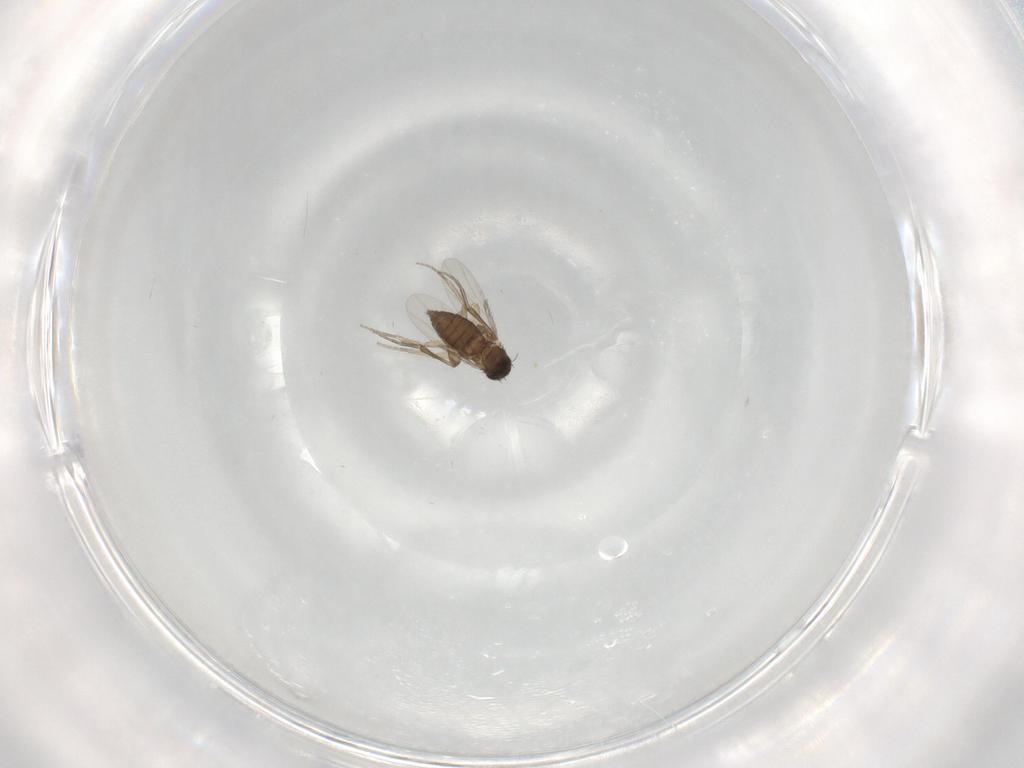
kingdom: Animalia
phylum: Arthropoda
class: Insecta
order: Diptera
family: Phoridae
